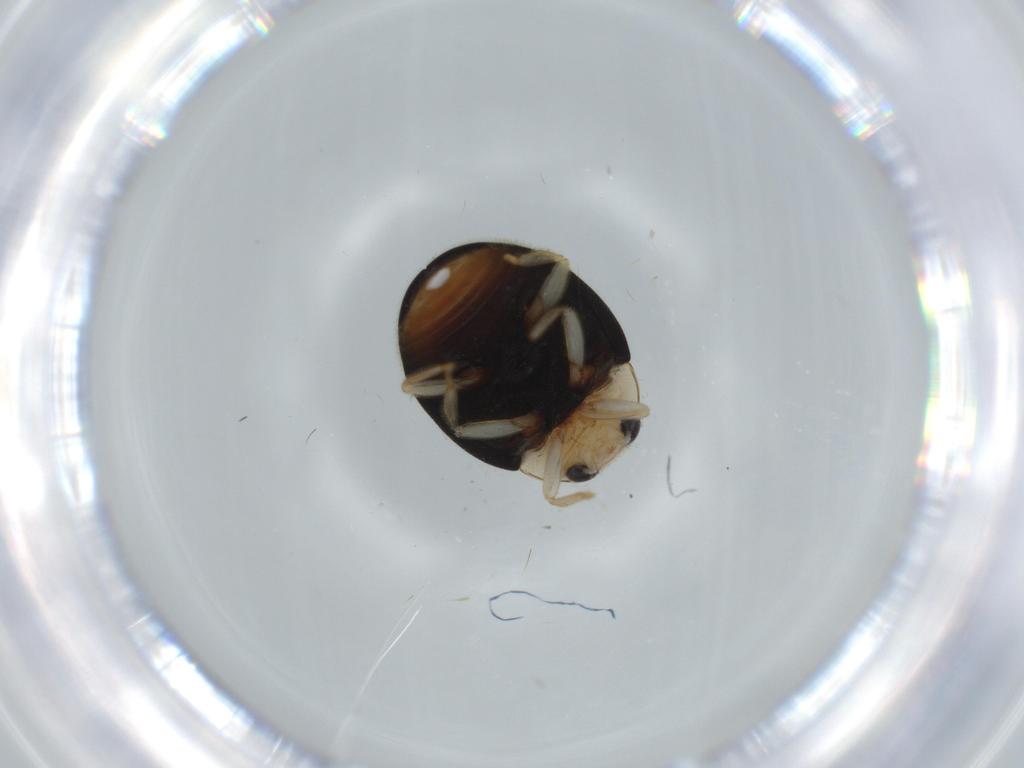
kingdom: Animalia
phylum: Arthropoda
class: Insecta
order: Coleoptera
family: Coccinellidae
